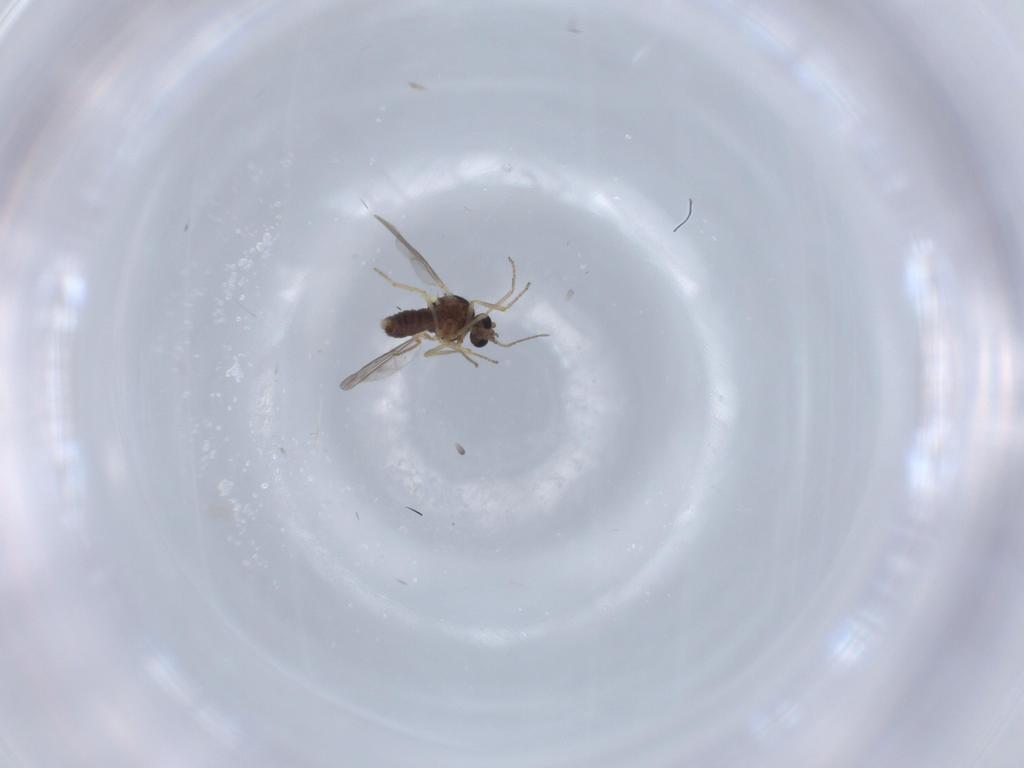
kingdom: Animalia
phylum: Arthropoda
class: Insecta
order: Diptera
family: Ceratopogonidae
